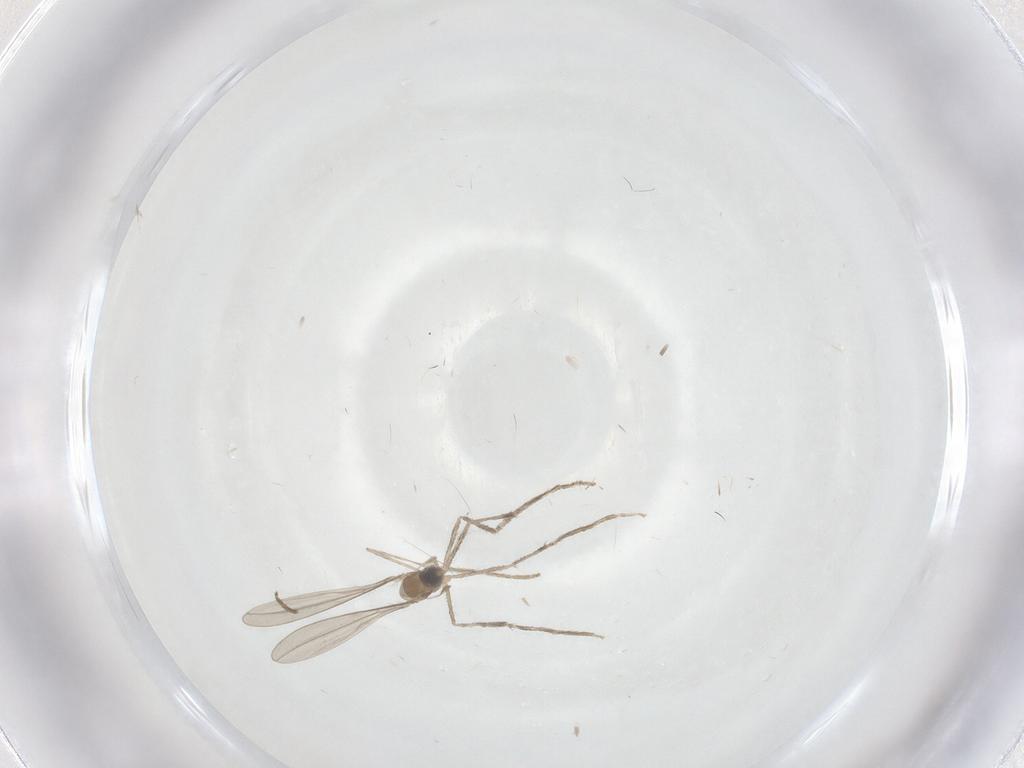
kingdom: Animalia
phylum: Arthropoda
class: Insecta
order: Diptera
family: Cecidomyiidae
